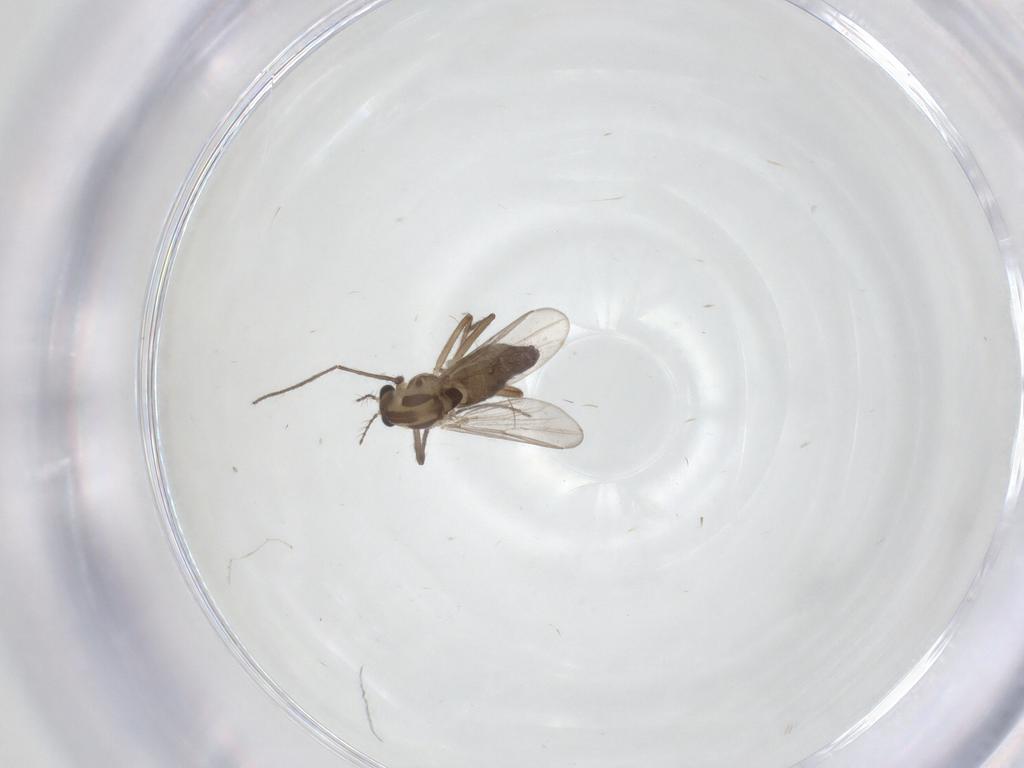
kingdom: Animalia
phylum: Arthropoda
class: Insecta
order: Diptera
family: Chironomidae
